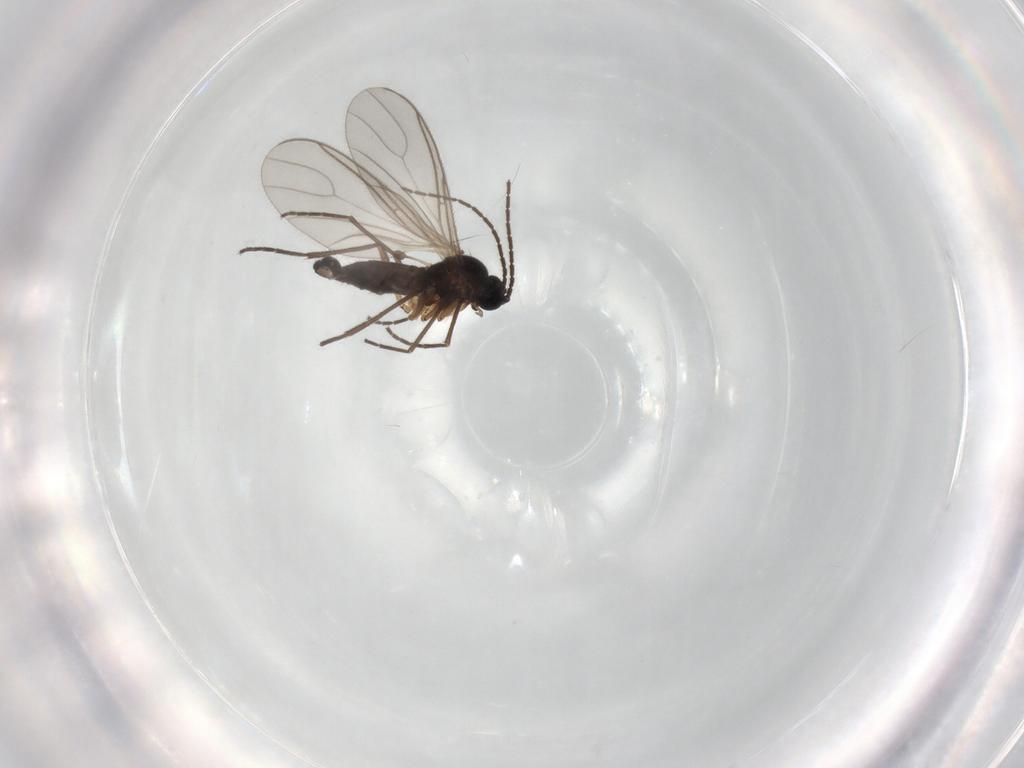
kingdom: Animalia
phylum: Arthropoda
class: Insecta
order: Diptera
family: Sciaridae
